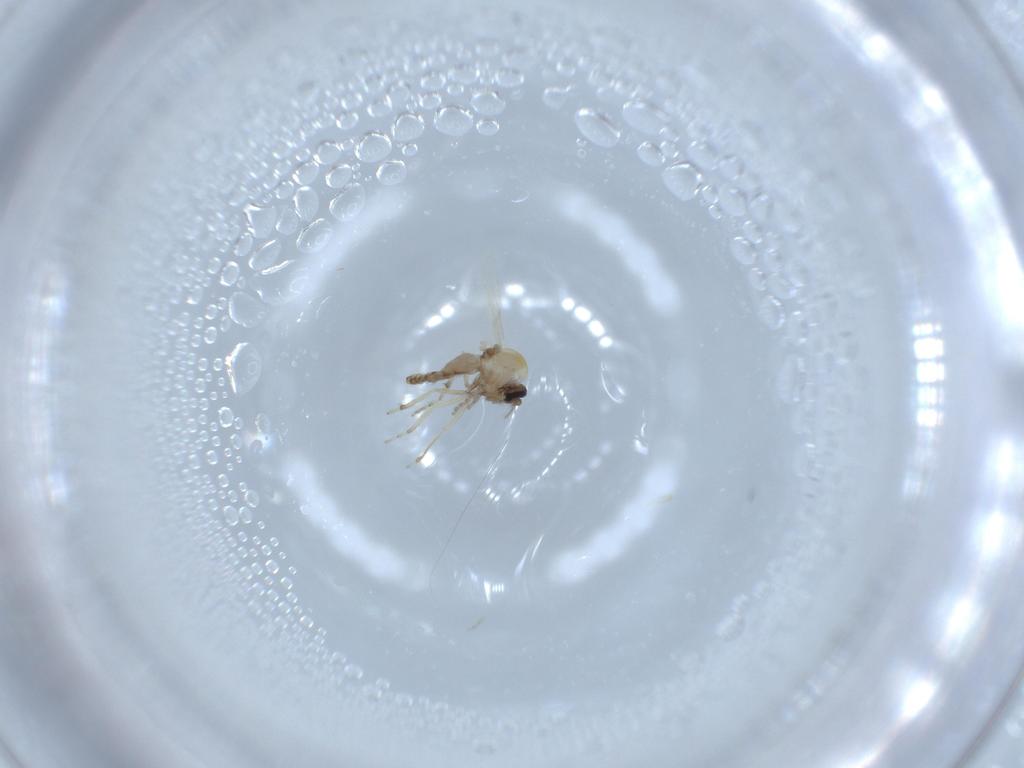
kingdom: Animalia
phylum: Arthropoda
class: Insecta
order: Diptera
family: Ceratopogonidae
